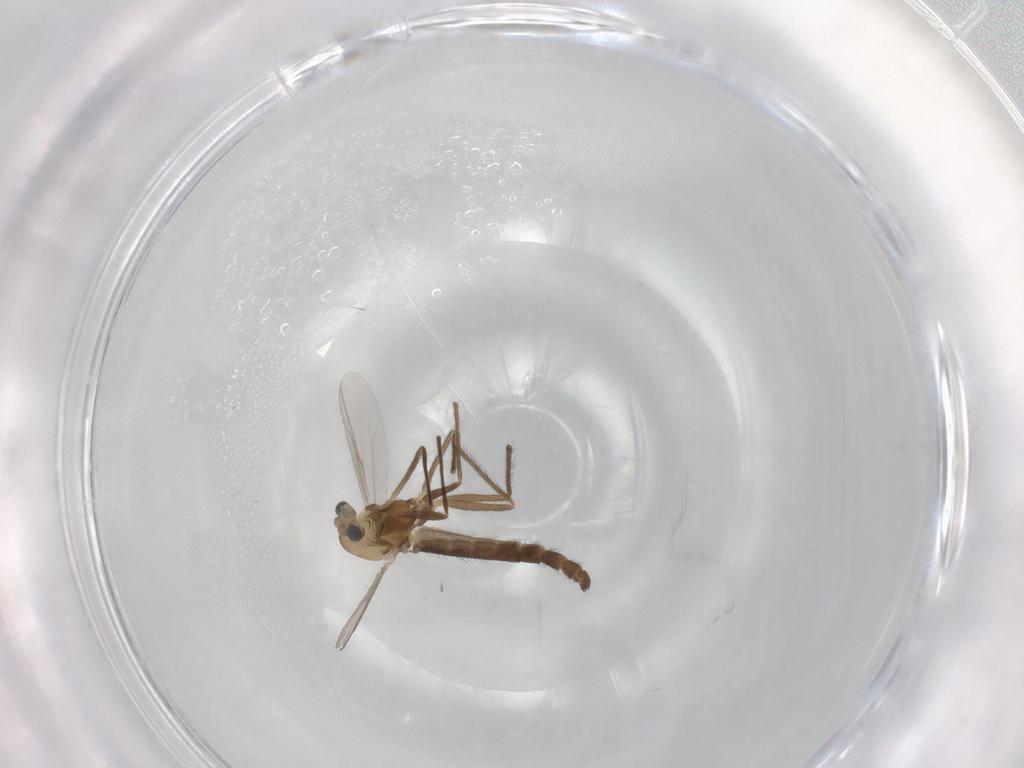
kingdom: Animalia
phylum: Arthropoda
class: Insecta
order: Diptera
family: Chironomidae
